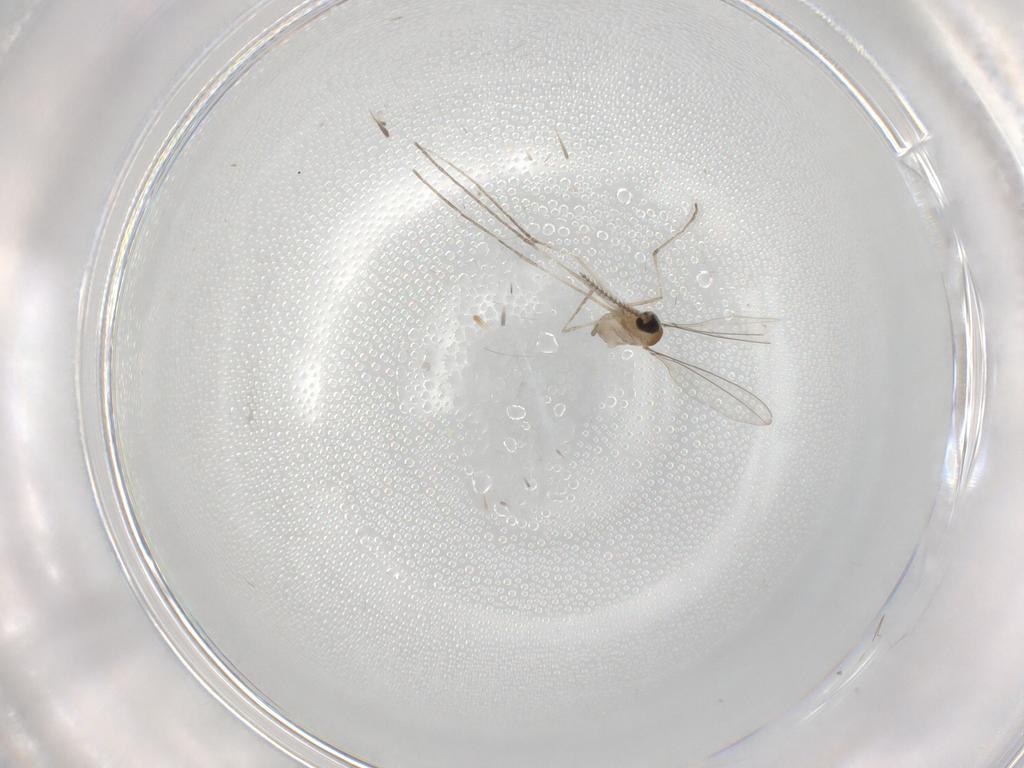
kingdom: Animalia
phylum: Arthropoda
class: Insecta
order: Diptera
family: Cecidomyiidae
